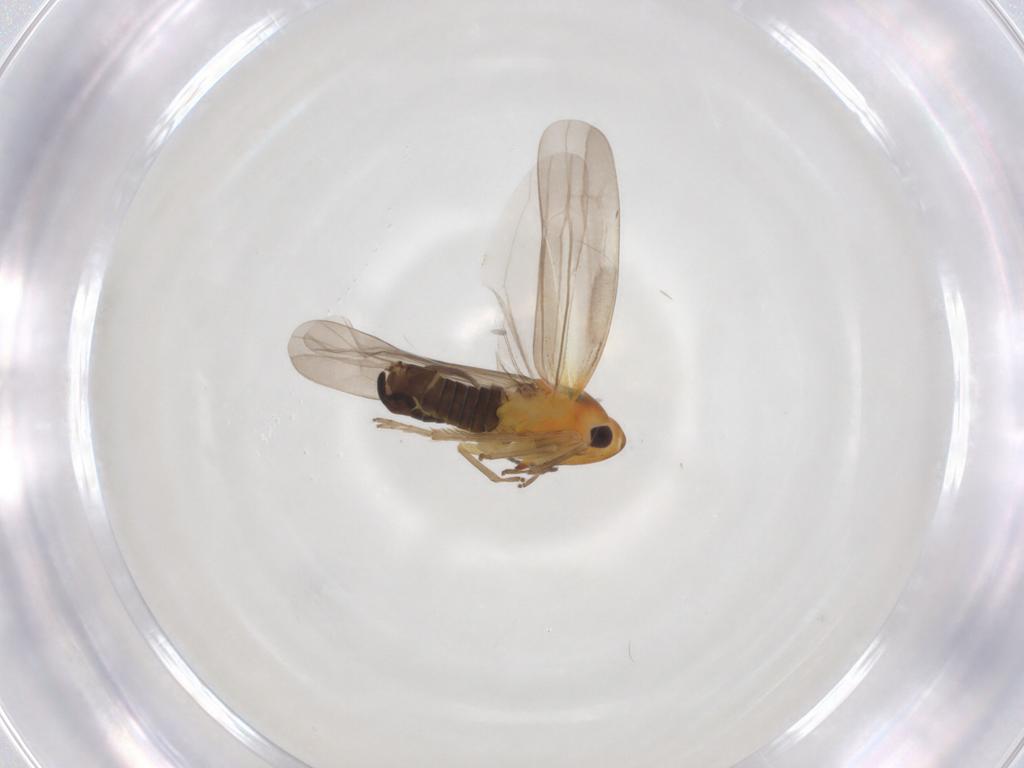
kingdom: Animalia
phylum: Arthropoda
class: Insecta
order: Hemiptera
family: Cicadellidae
